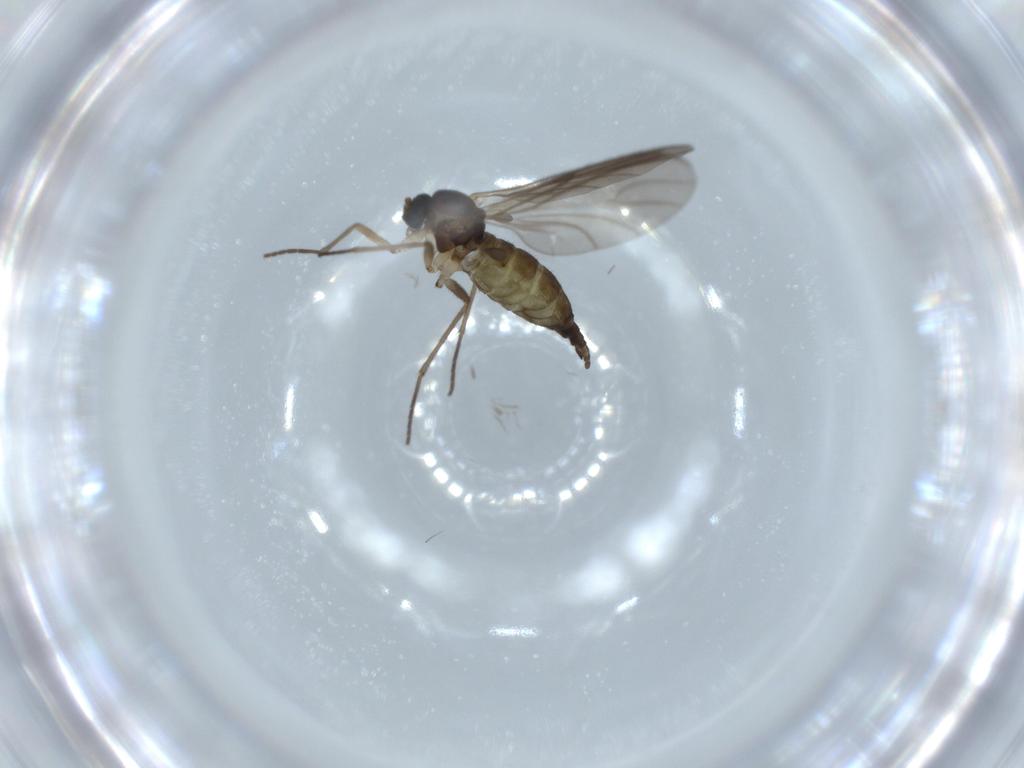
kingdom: Animalia
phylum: Arthropoda
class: Insecta
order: Diptera
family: Sciaridae
